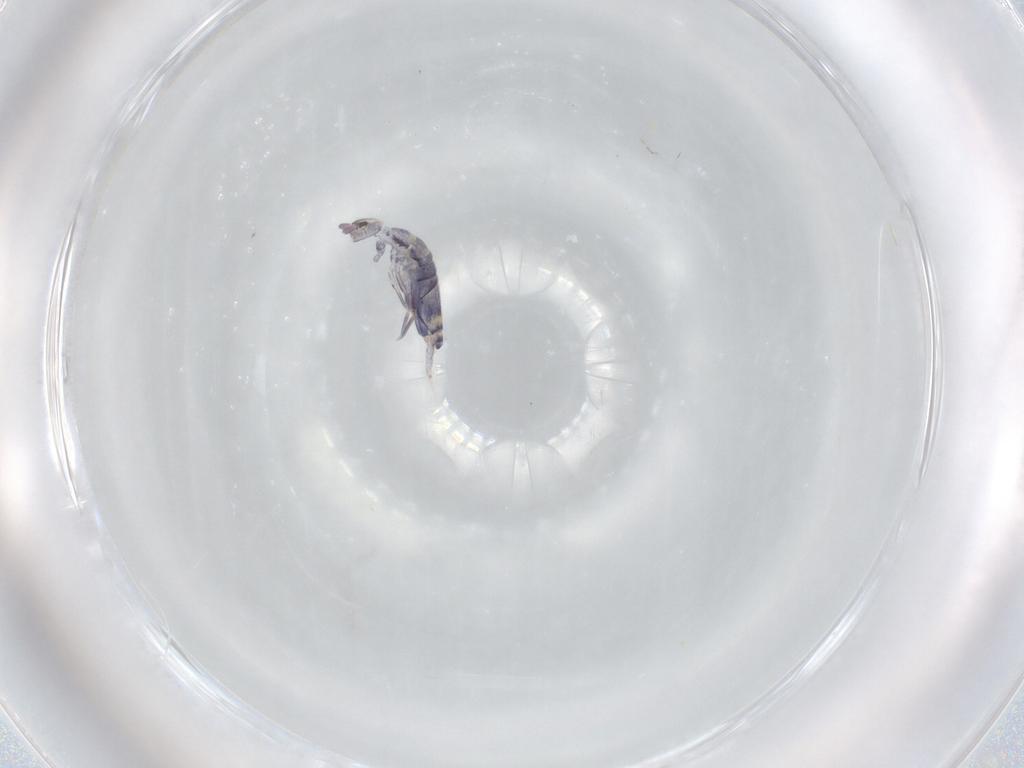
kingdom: Animalia
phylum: Arthropoda
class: Collembola
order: Entomobryomorpha
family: Entomobryidae
